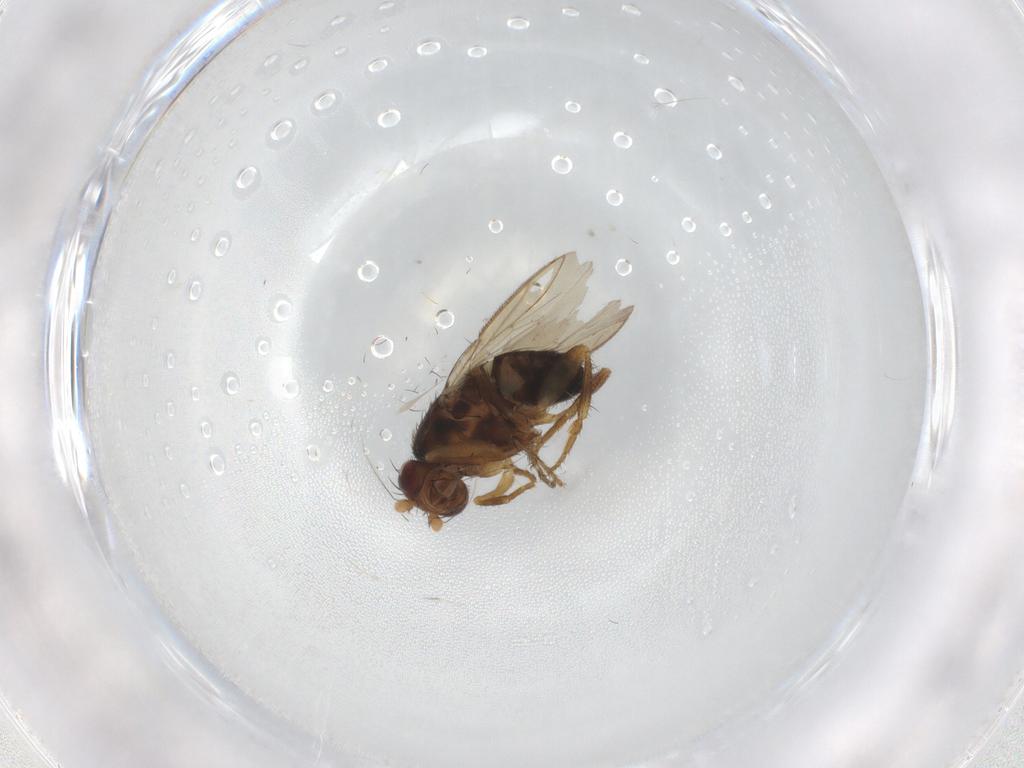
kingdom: Animalia
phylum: Arthropoda
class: Insecta
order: Diptera
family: Sphaeroceridae
